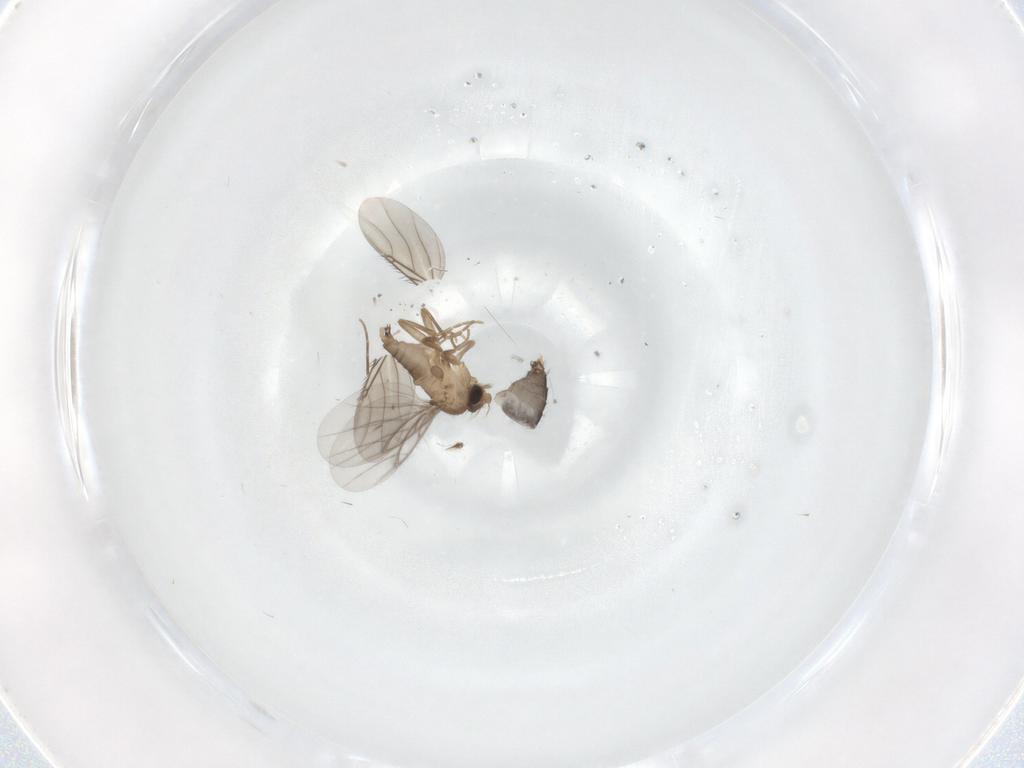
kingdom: Animalia
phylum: Arthropoda
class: Insecta
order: Diptera
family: Phoridae
